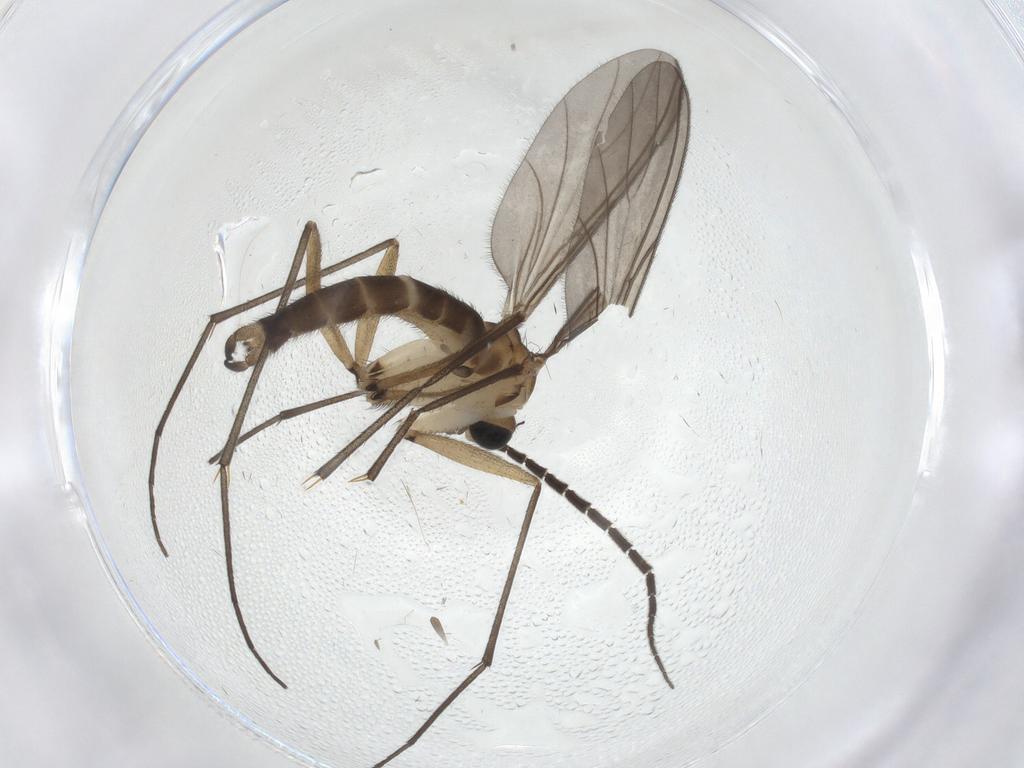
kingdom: Animalia
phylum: Arthropoda
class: Insecta
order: Diptera
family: Sciaridae
